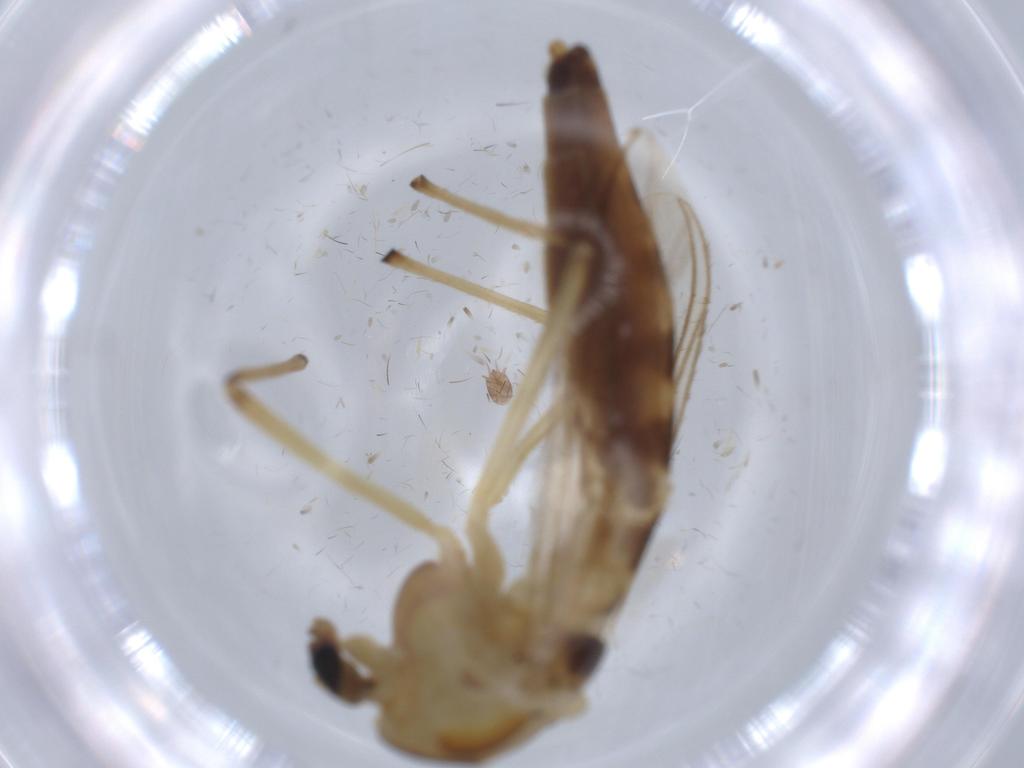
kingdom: Animalia
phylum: Arthropoda
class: Insecta
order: Diptera
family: Chironomidae
